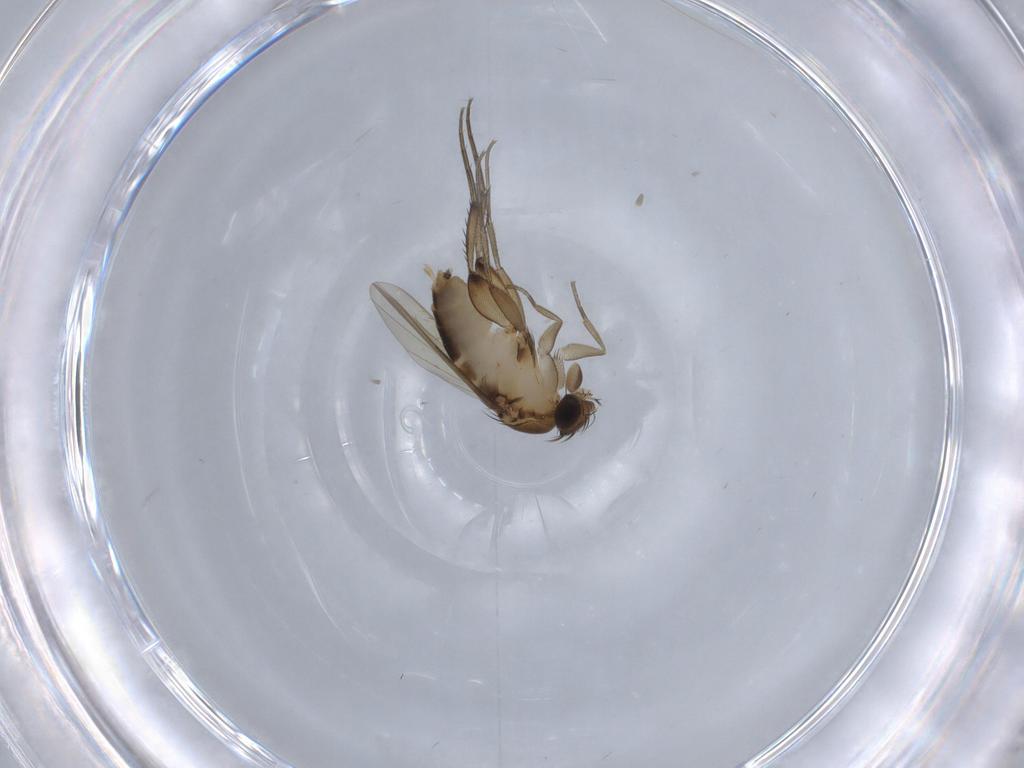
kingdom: Animalia
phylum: Arthropoda
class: Insecta
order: Diptera
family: Phoridae
